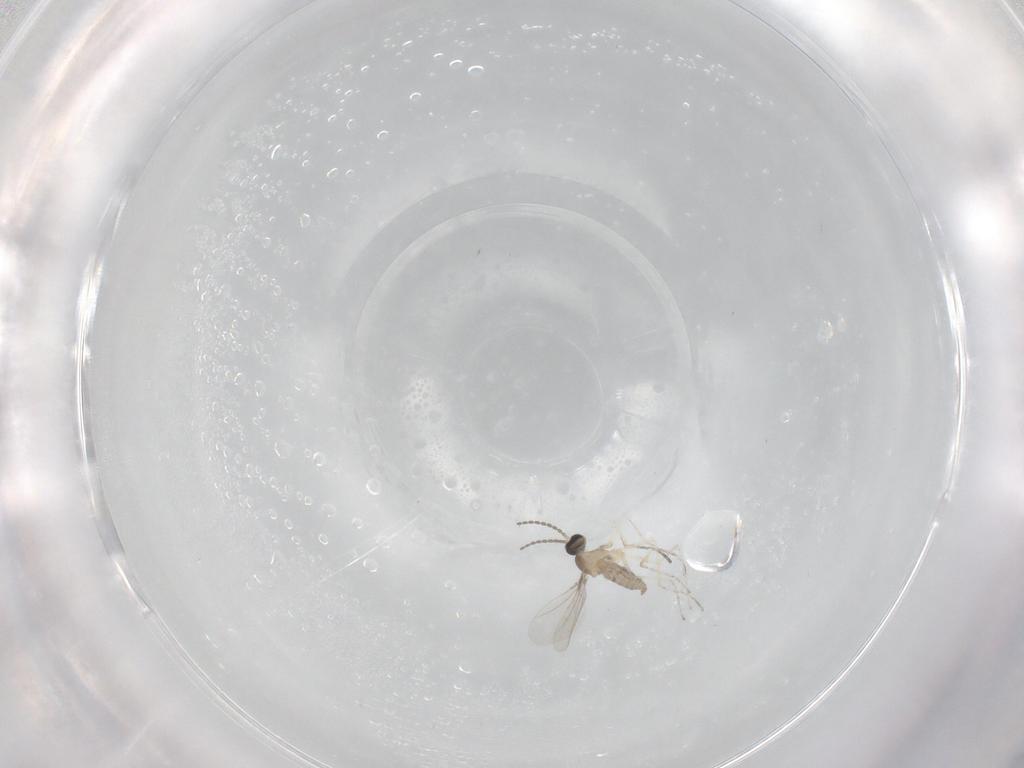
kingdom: Animalia
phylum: Arthropoda
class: Insecta
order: Diptera
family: Cecidomyiidae
